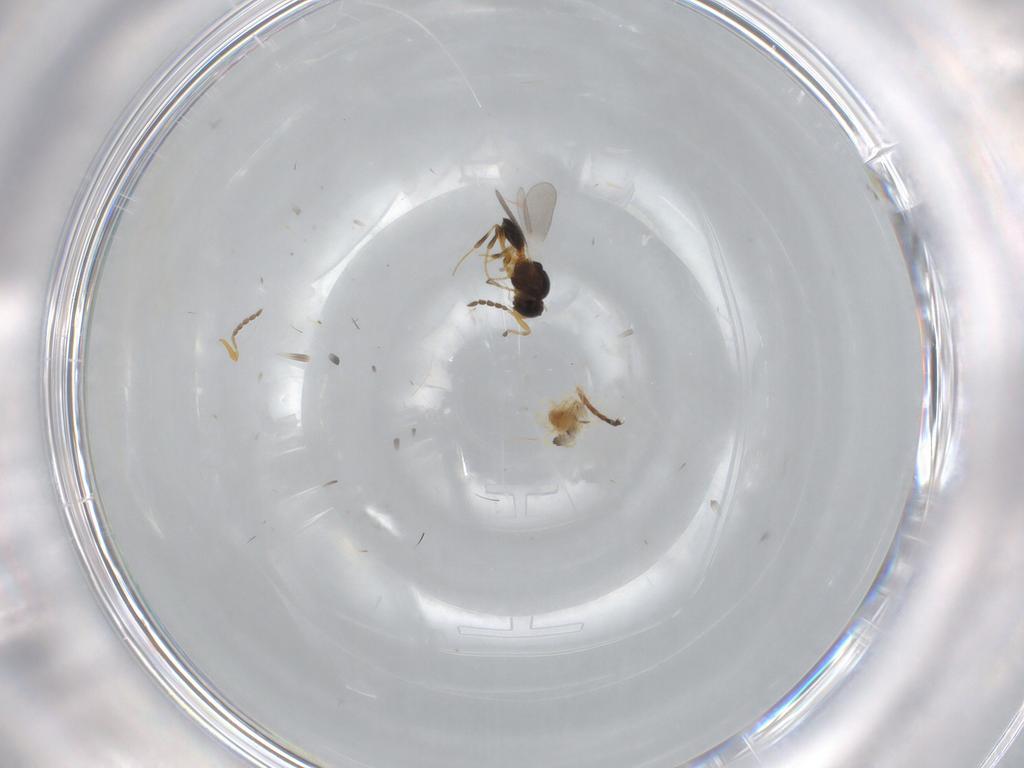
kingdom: Animalia
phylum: Arthropoda
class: Insecta
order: Hymenoptera
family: Platygastridae
